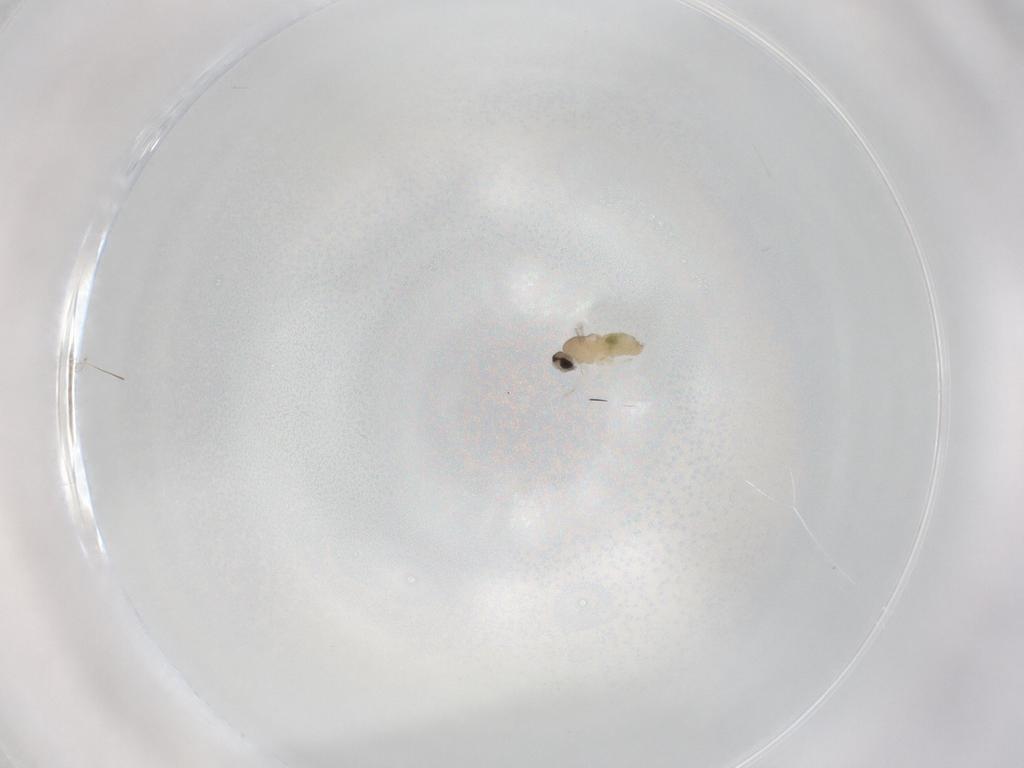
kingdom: Animalia
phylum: Arthropoda
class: Insecta
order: Diptera
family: Cecidomyiidae
